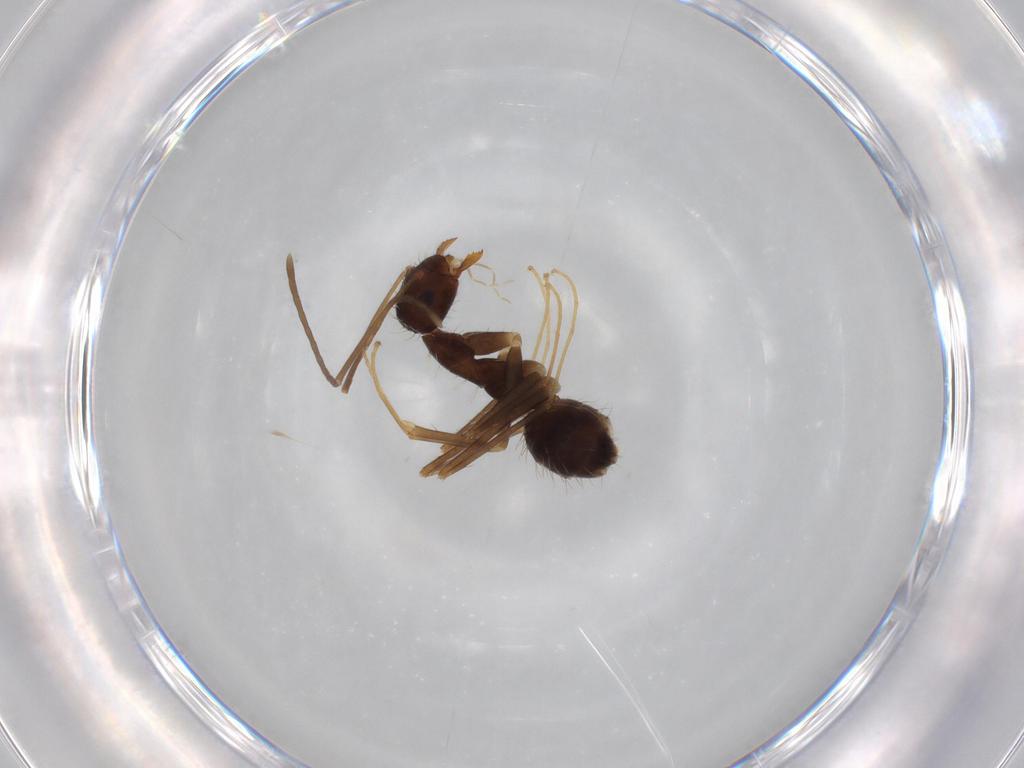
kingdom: Animalia
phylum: Arthropoda
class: Insecta
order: Hymenoptera
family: Formicidae
